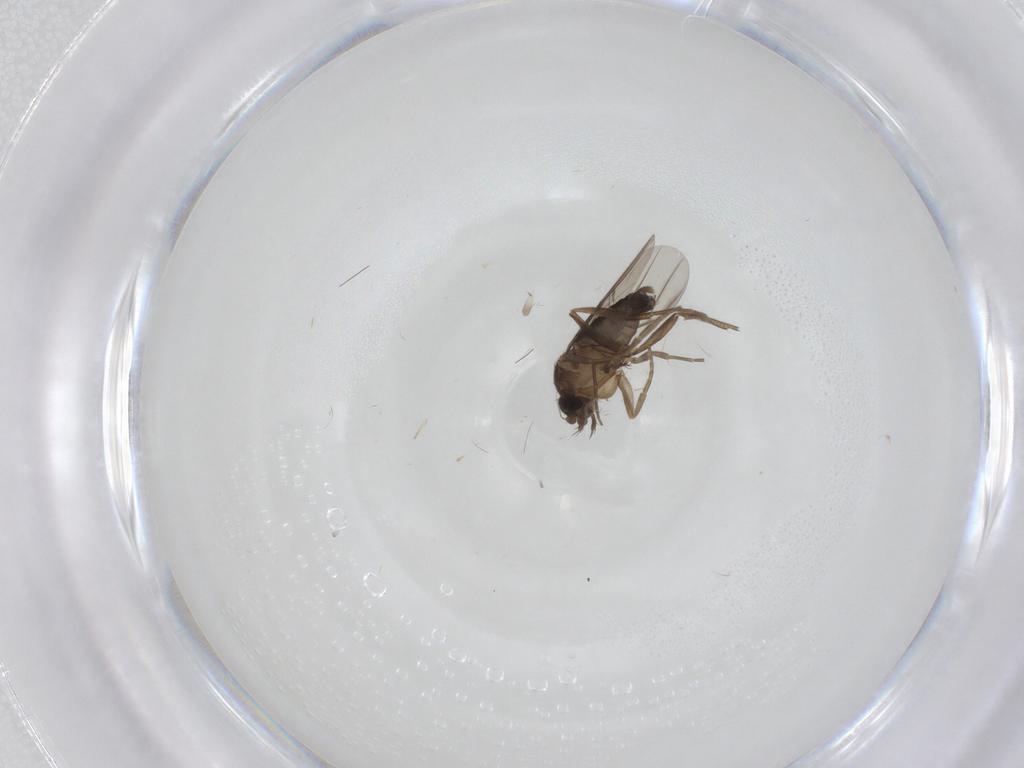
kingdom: Animalia
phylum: Arthropoda
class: Insecta
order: Diptera
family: Phoridae
